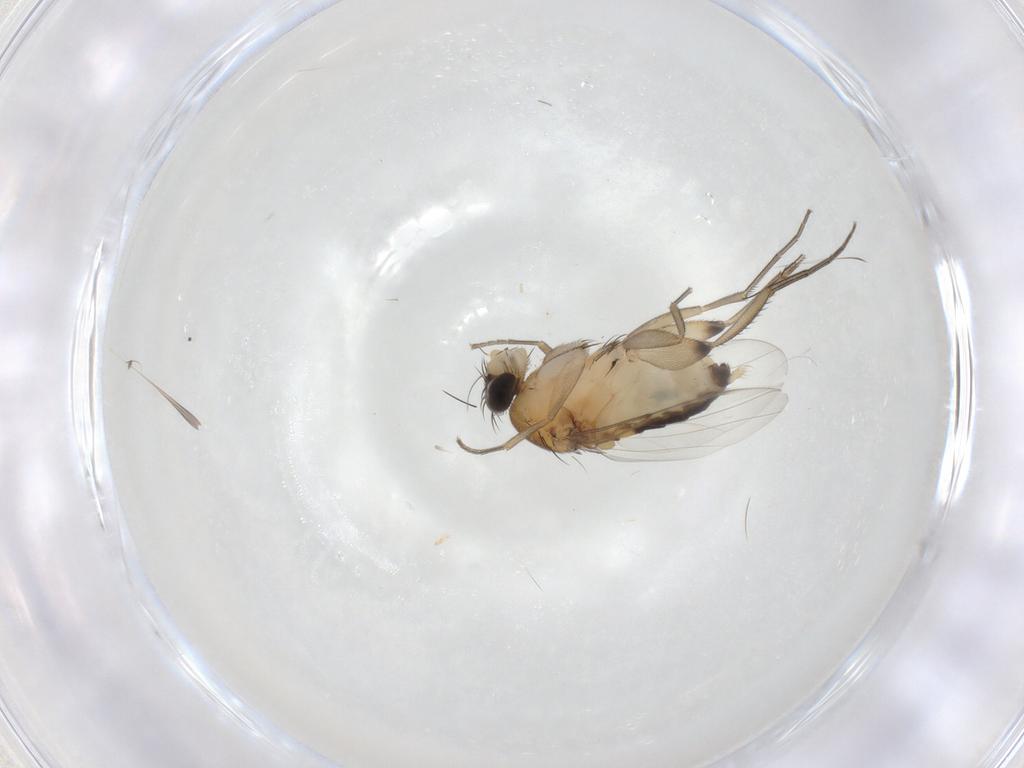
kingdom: Animalia
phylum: Arthropoda
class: Insecta
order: Diptera
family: Phoridae
